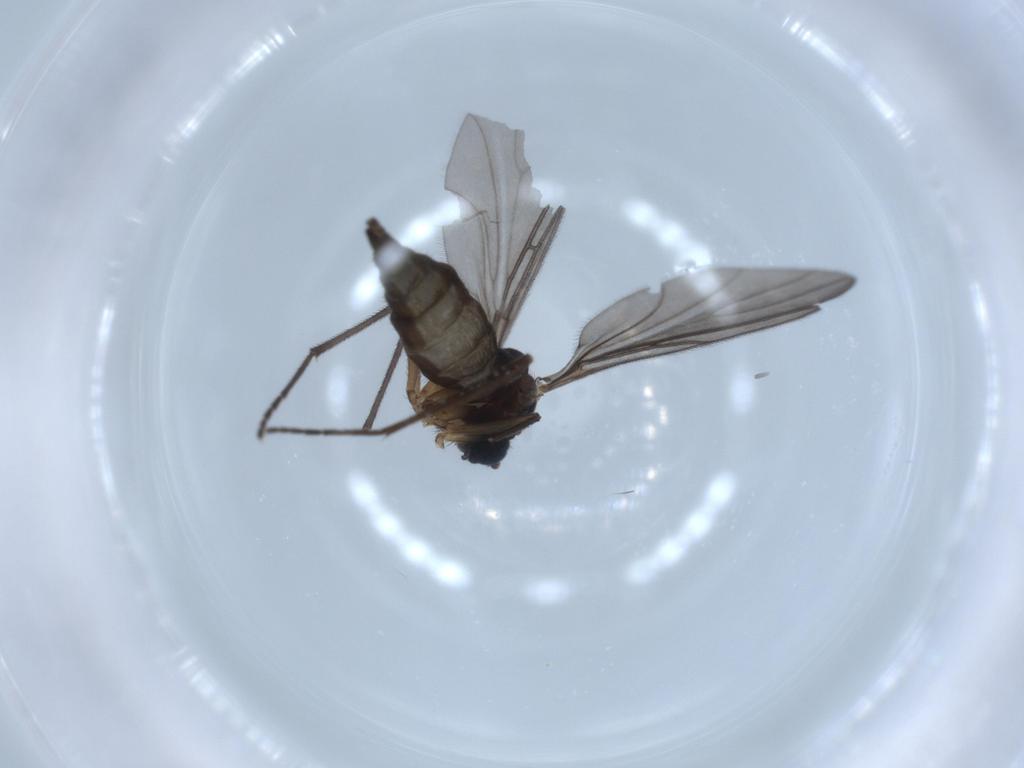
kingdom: Animalia
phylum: Arthropoda
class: Insecta
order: Diptera
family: Sciaridae
